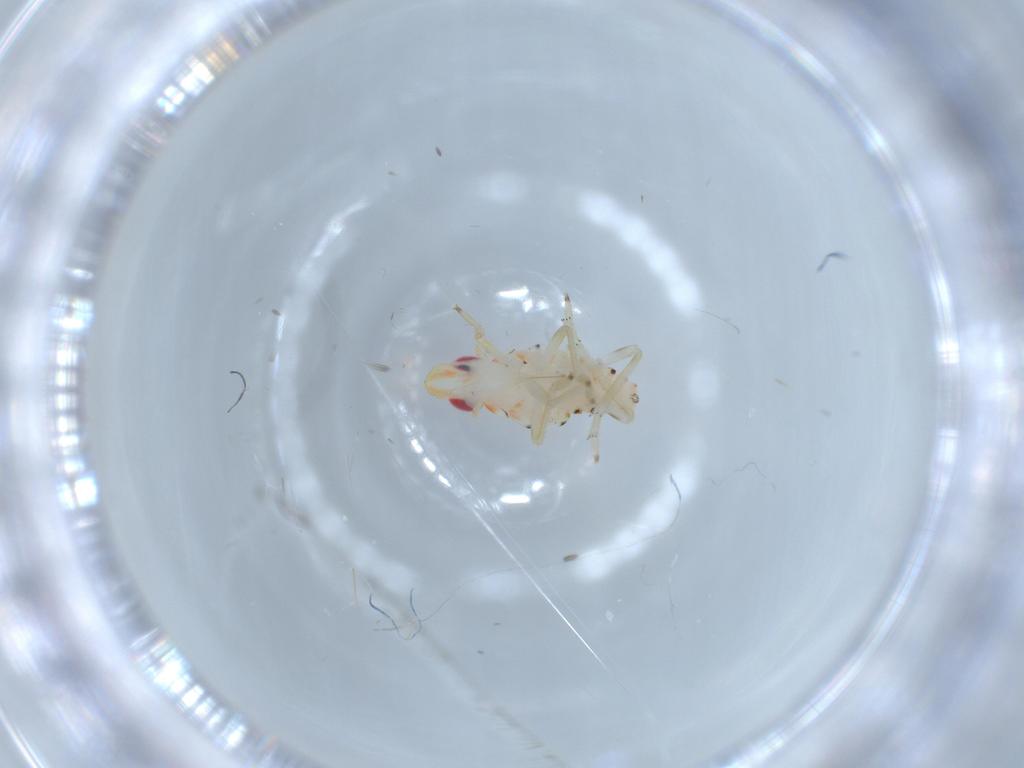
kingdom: Animalia
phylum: Arthropoda
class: Insecta
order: Hemiptera
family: Tropiduchidae
